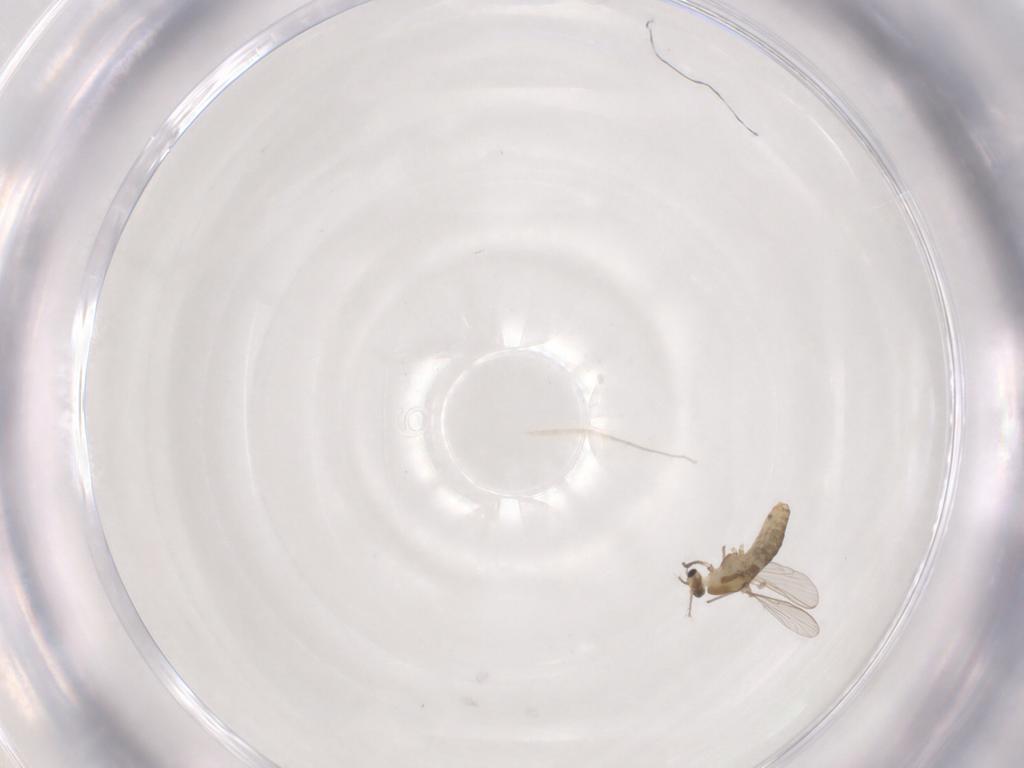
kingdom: Animalia
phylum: Arthropoda
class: Insecta
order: Diptera
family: Chironomidae
